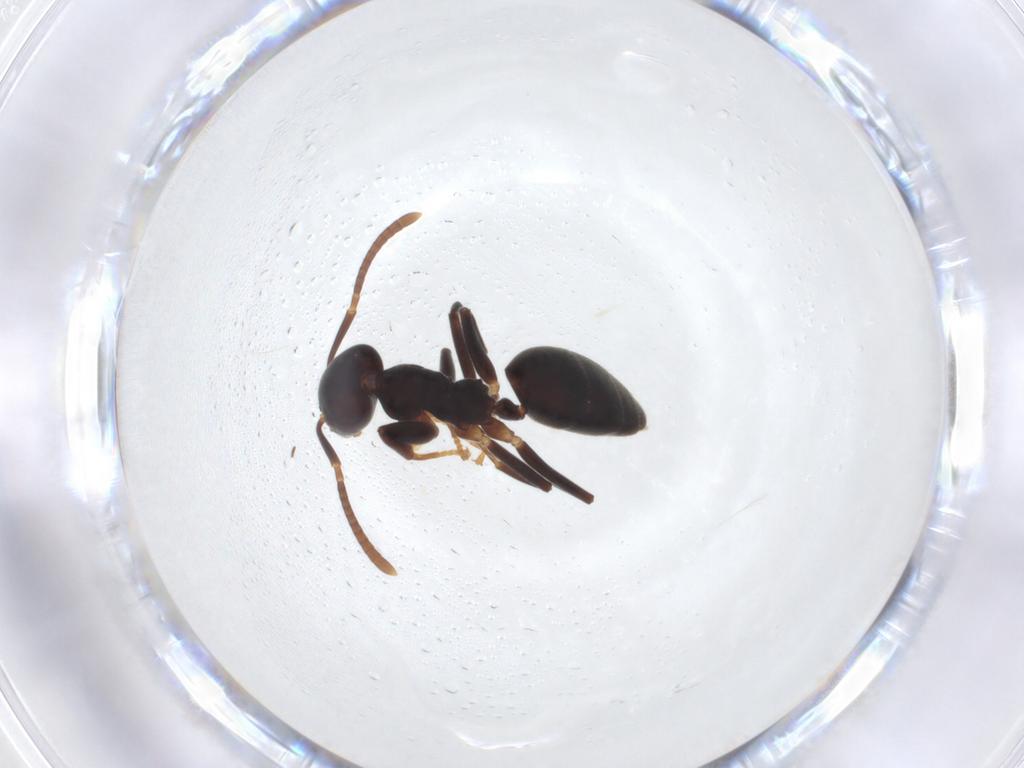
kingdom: Animalia
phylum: Arthropoda
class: Insecta
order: Hymenoptera
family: Formicidae
